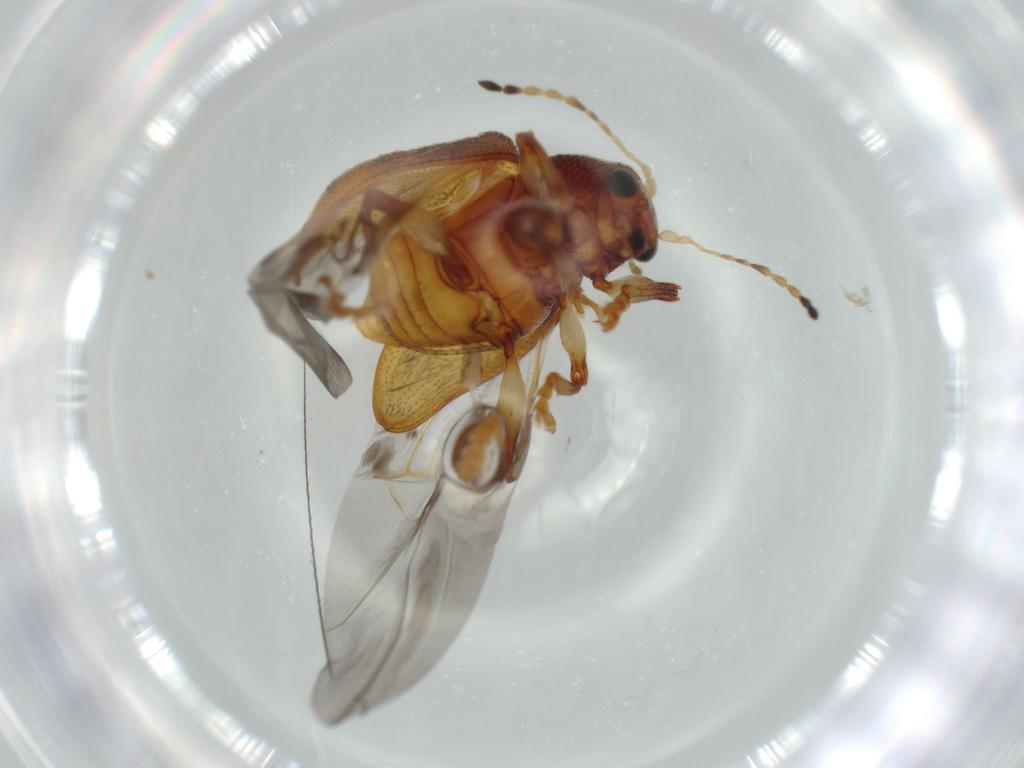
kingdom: Animalia
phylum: Arthropoda
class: Insecta
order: Coleoptera
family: Chrysomelidae
